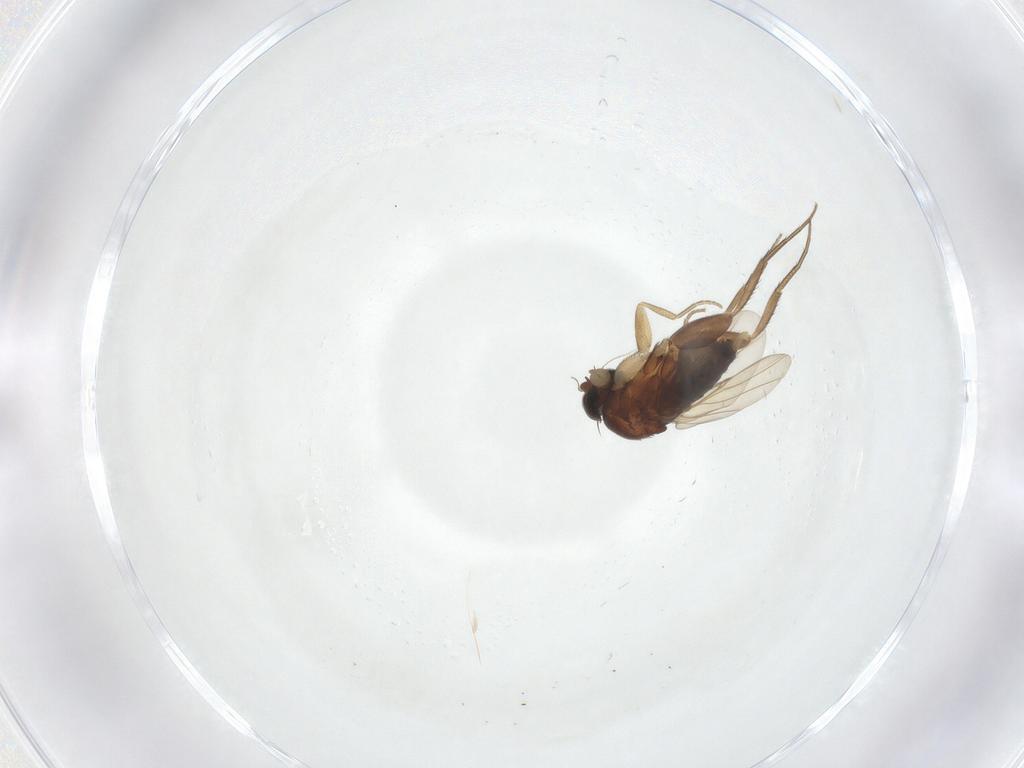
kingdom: Animalia
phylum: Arthropoda
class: Insecta
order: Diptera
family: Phoridae
